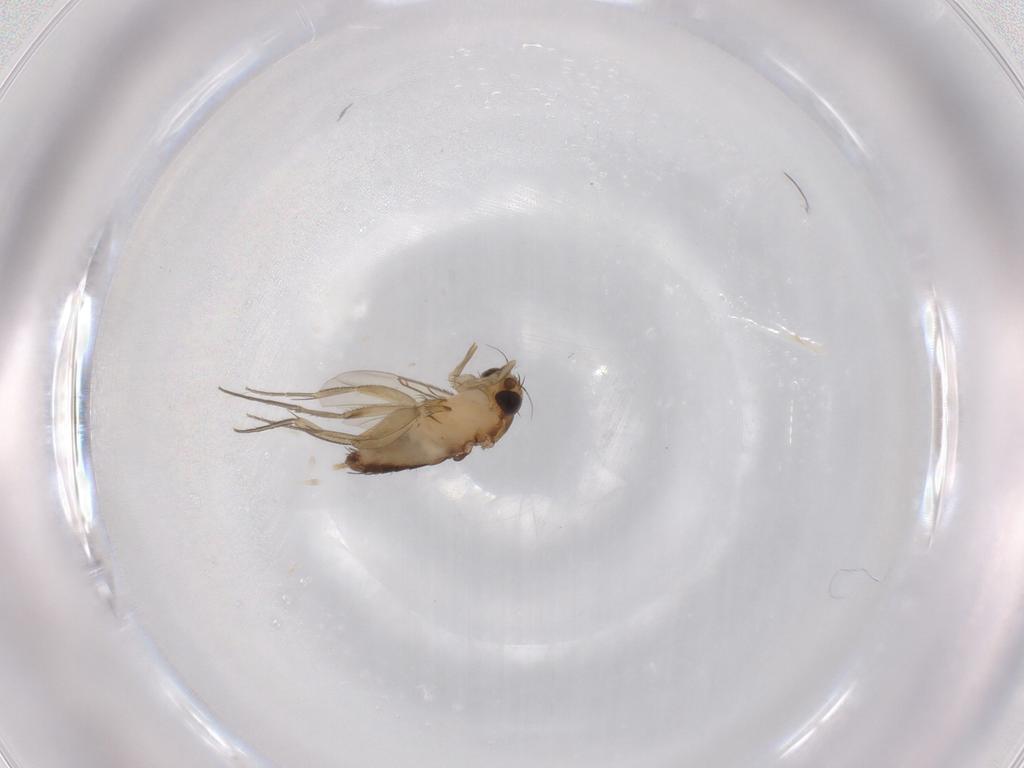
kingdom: Animalia
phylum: Arthropoda
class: Insecta
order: Diptera
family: Phoridae
